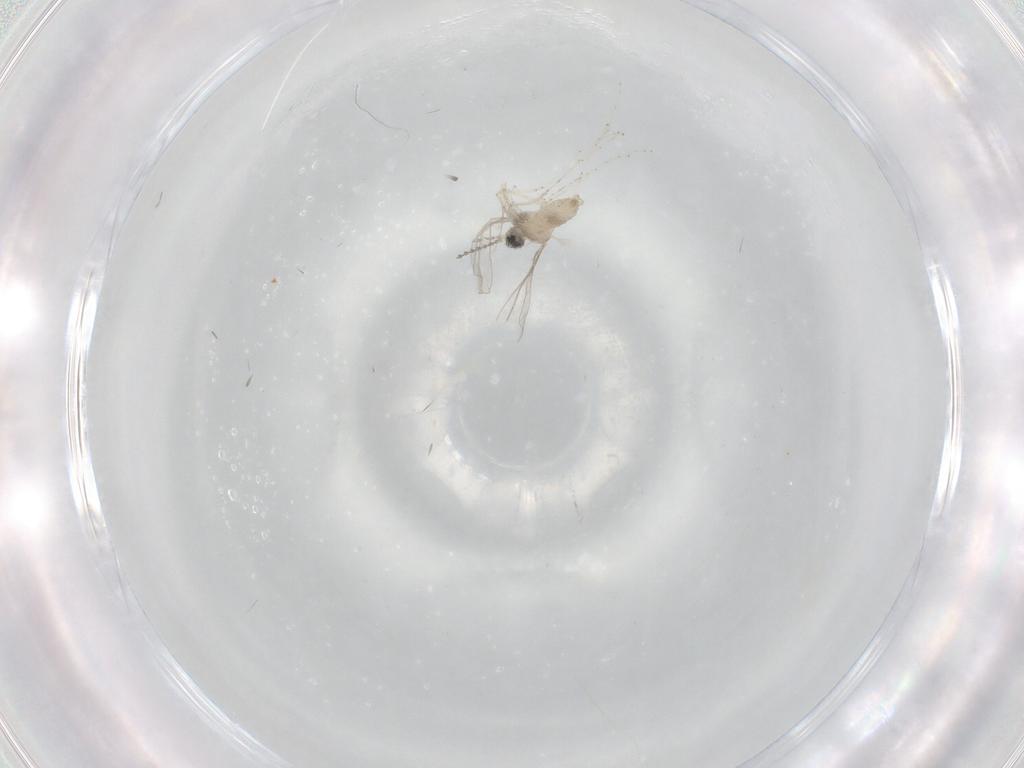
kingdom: Animalia
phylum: Arthropoda
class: Insecta
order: Diptera
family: Cecidomyiidae
